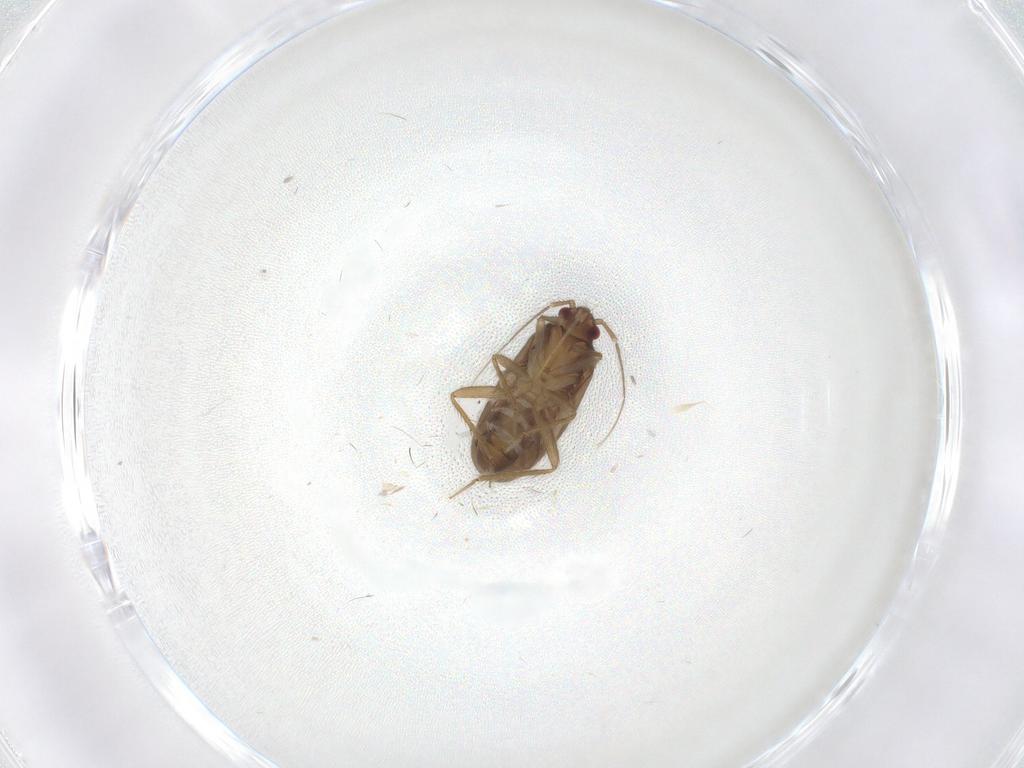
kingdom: Animalia
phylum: Arthropoda
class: Insecta
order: Hemiptera
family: Ceratocombidae
